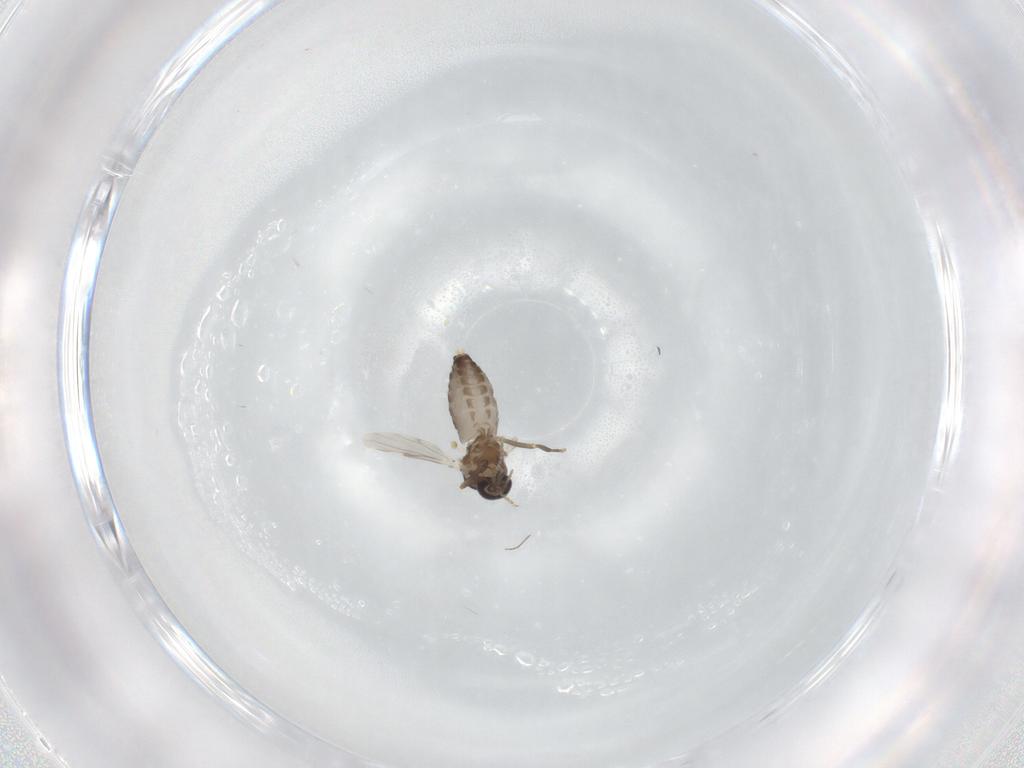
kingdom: Animalia
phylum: Arthropoda
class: Insecta
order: Diptera
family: Ceratopogonidae
